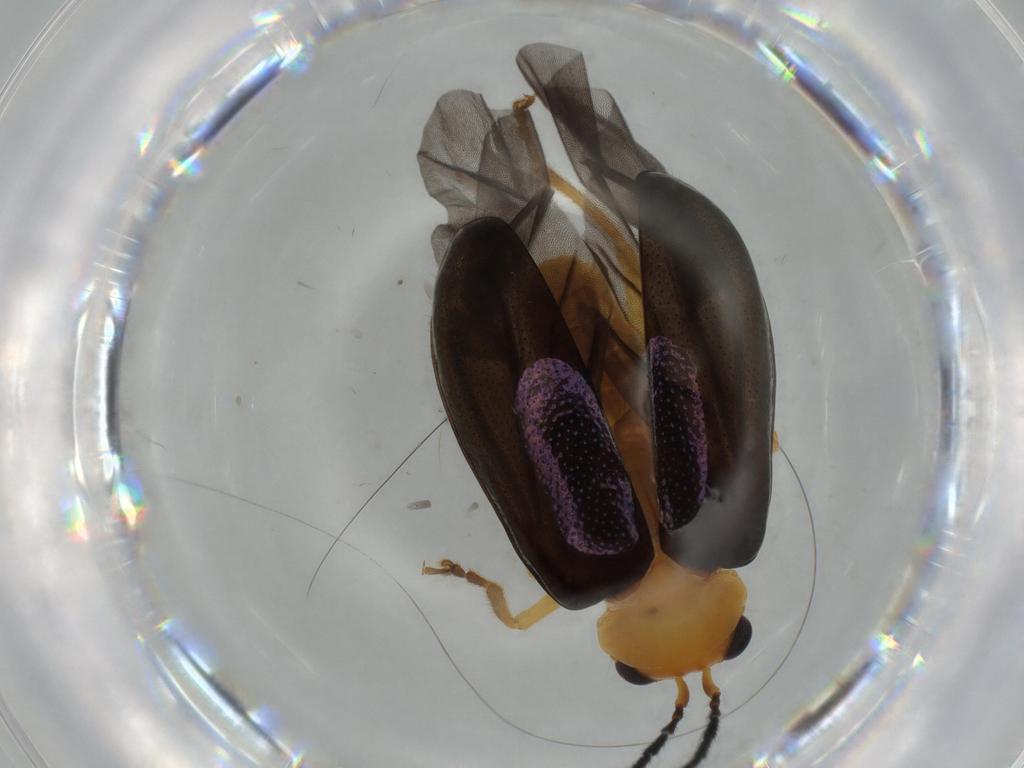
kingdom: Animalia
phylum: Arthropoda
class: Insecta
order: Coleoptera
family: Chrysomelidae
